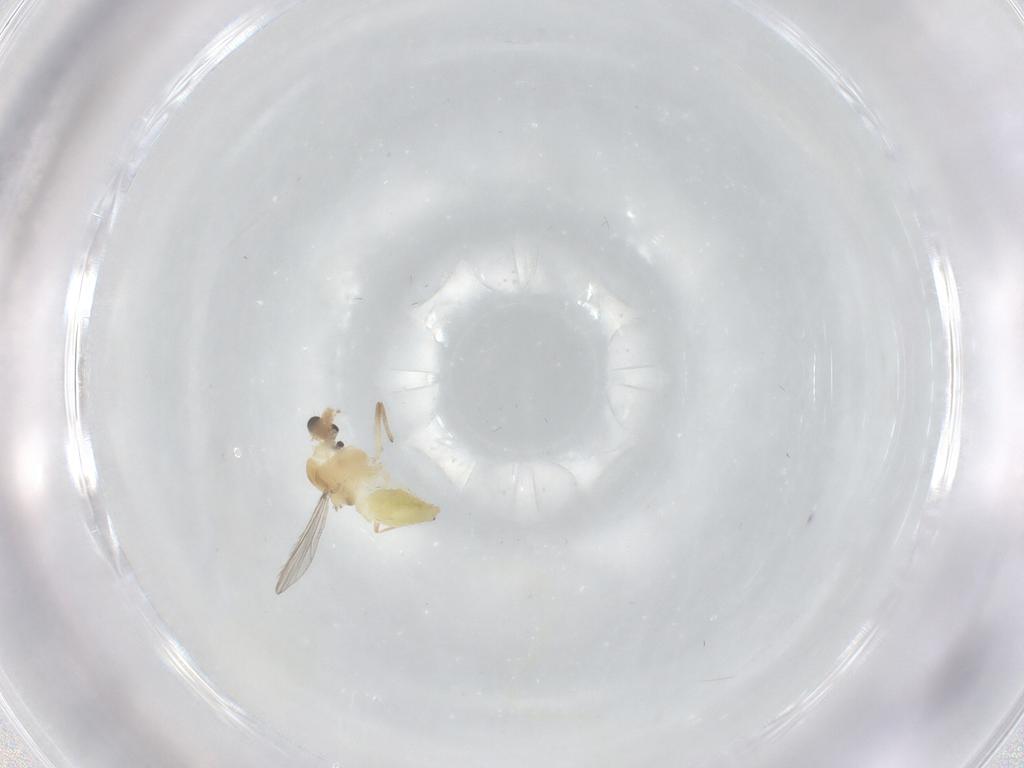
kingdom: Animalia
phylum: Arthropoda
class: Insecta
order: Diptera
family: Chironomidae
